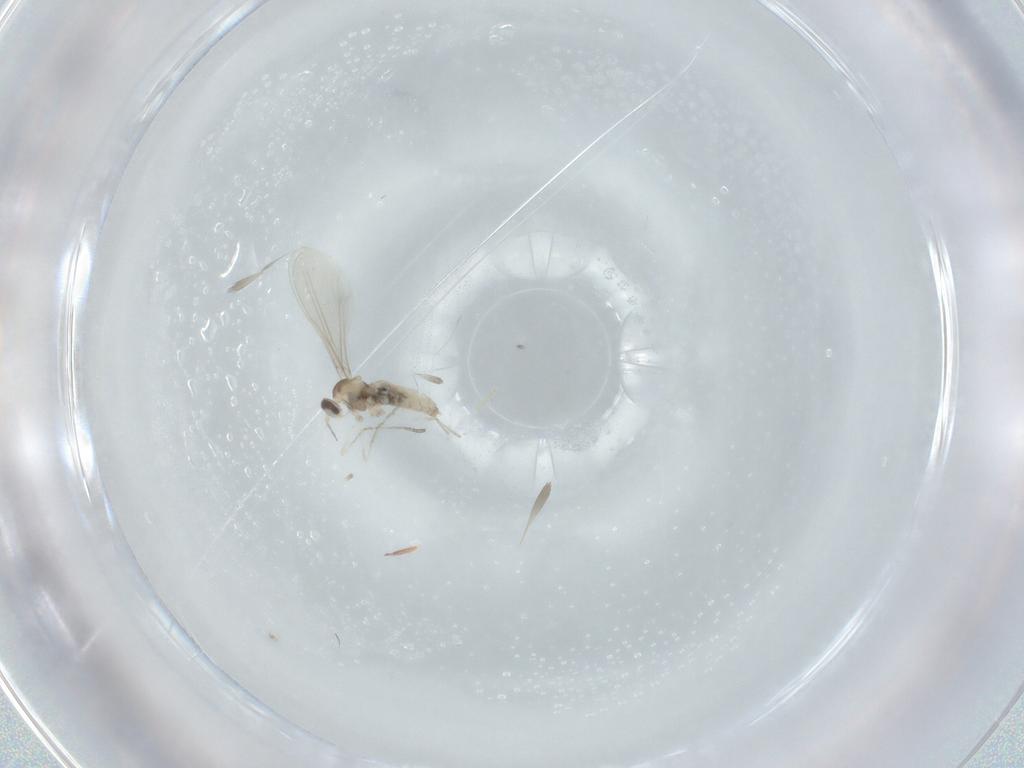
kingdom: Animalia
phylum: Arthropoda
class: Insecta
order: Diptera
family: Cecidomyiidae
